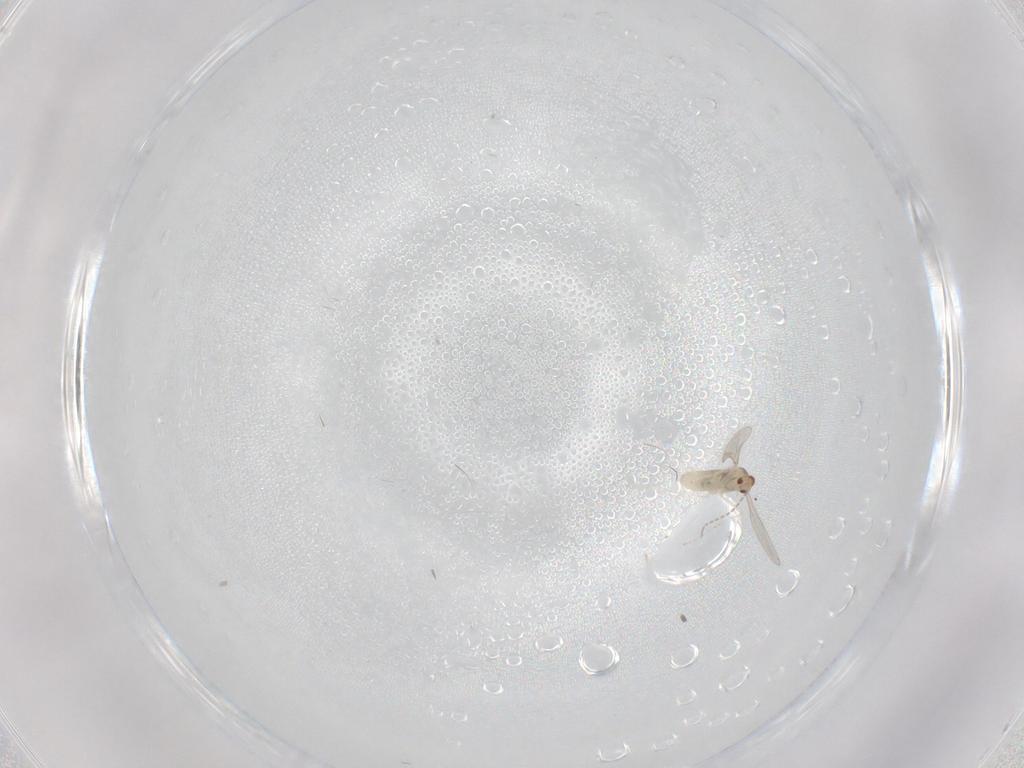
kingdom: Animalia
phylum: Arthropoda
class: Insecta
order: Diptera
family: Cecidomyiidae
